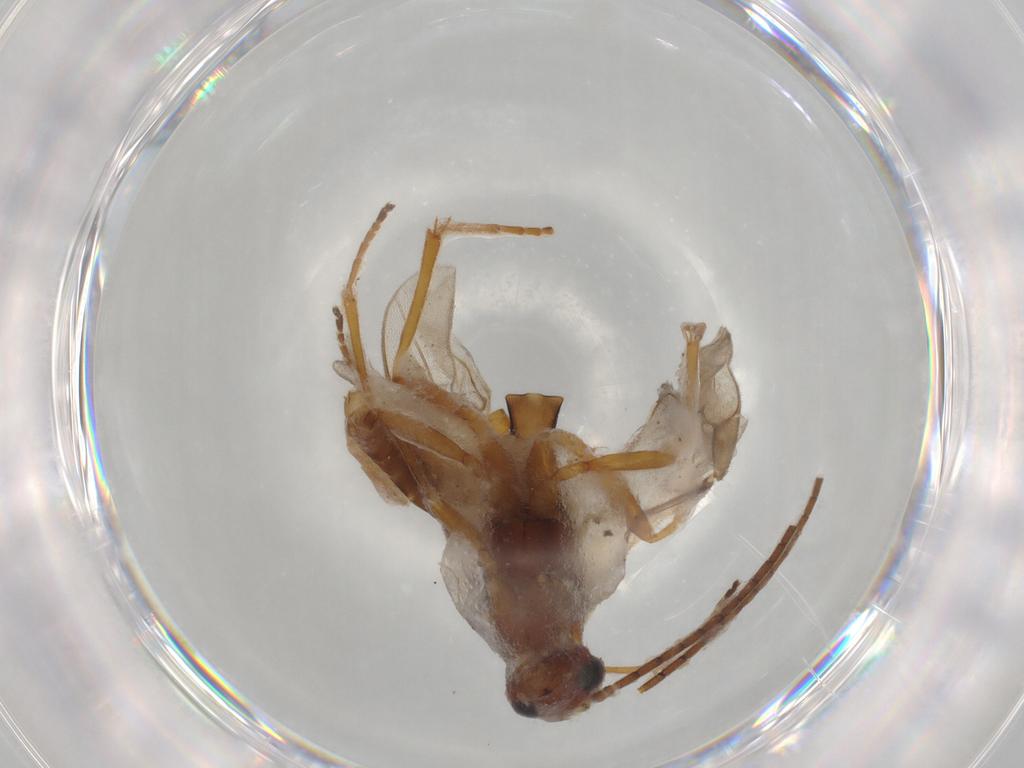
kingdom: Animalia
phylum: Arthropoda
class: Insecta
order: Hymenoptera
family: Braconidae
